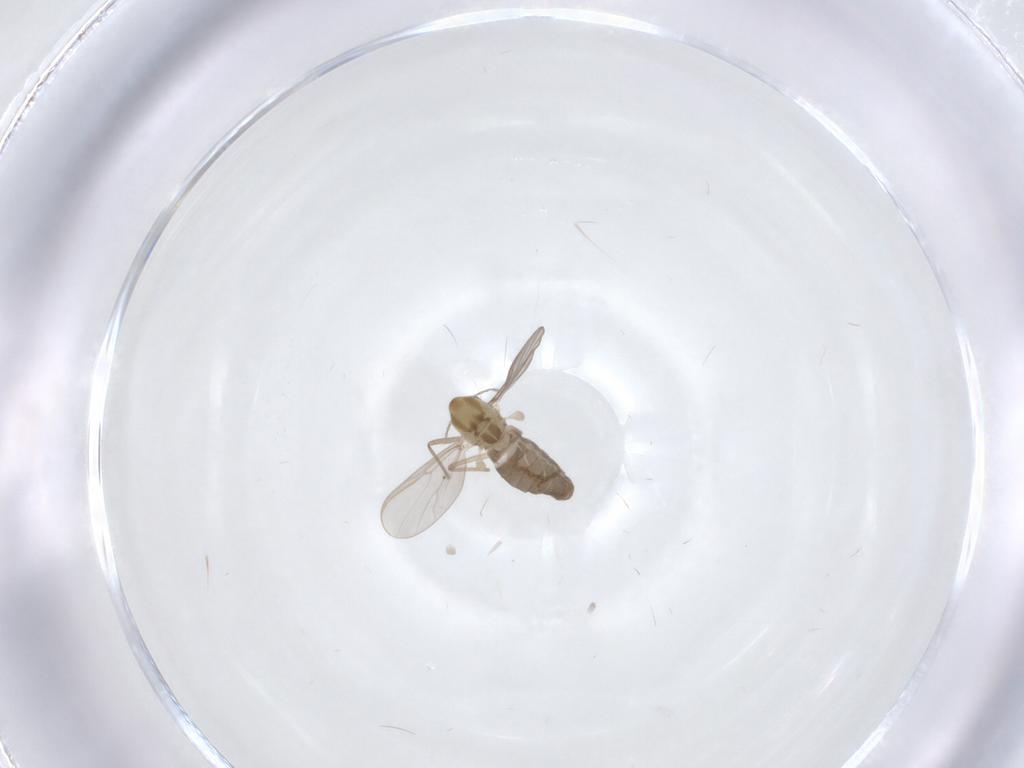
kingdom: Animalia
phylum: Arthropoda
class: Insecta
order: Diptera
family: Chironomidae
